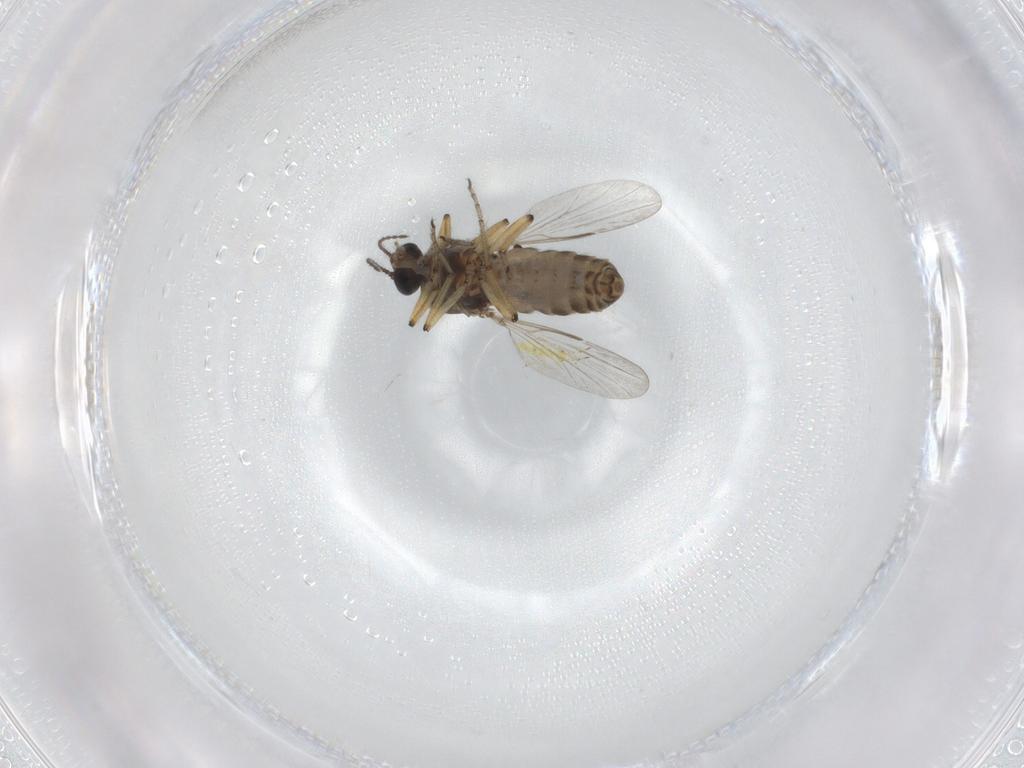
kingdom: Animalia
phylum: Arthropoda
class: Insecta
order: Diptera
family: Ceratopogonidae
